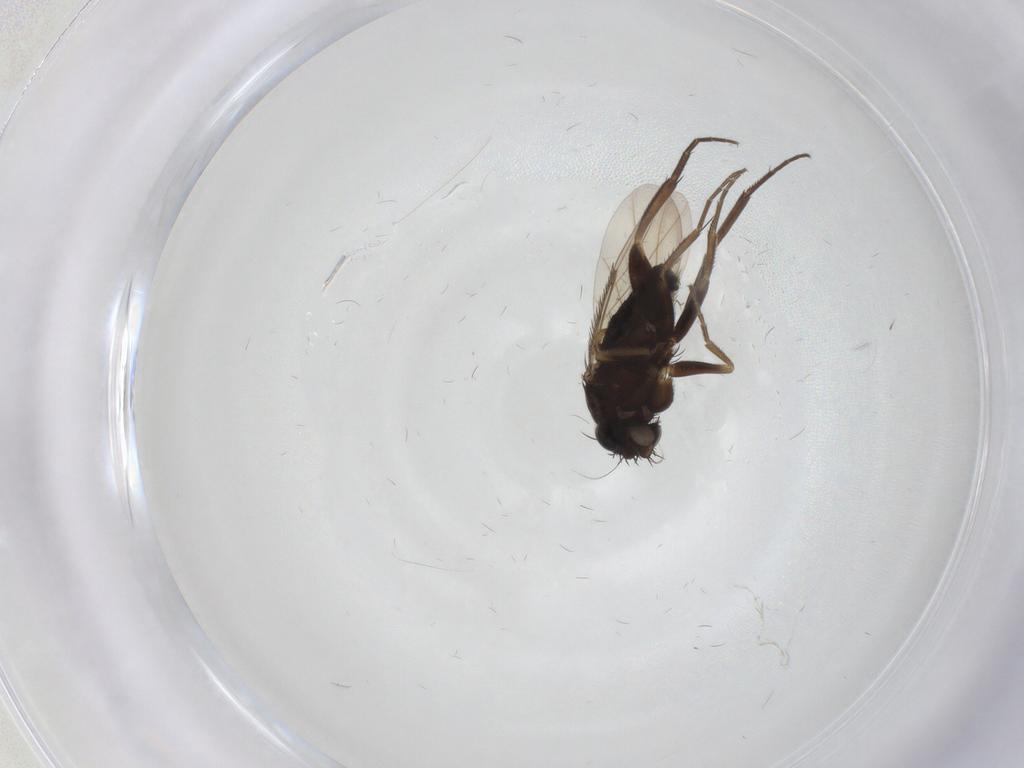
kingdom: Animalia
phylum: Arthropoda
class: Insecta
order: Diptera
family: Phoridae
